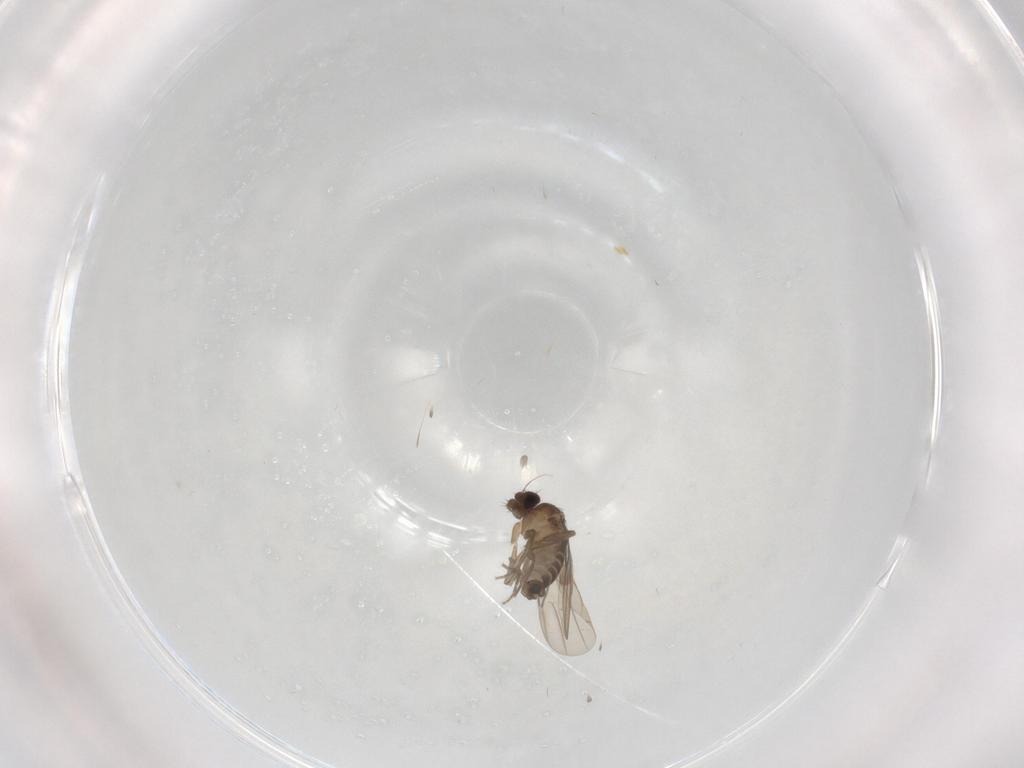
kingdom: Animalia
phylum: Arthropoda
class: Insecta
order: Diptera
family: Phoridae
